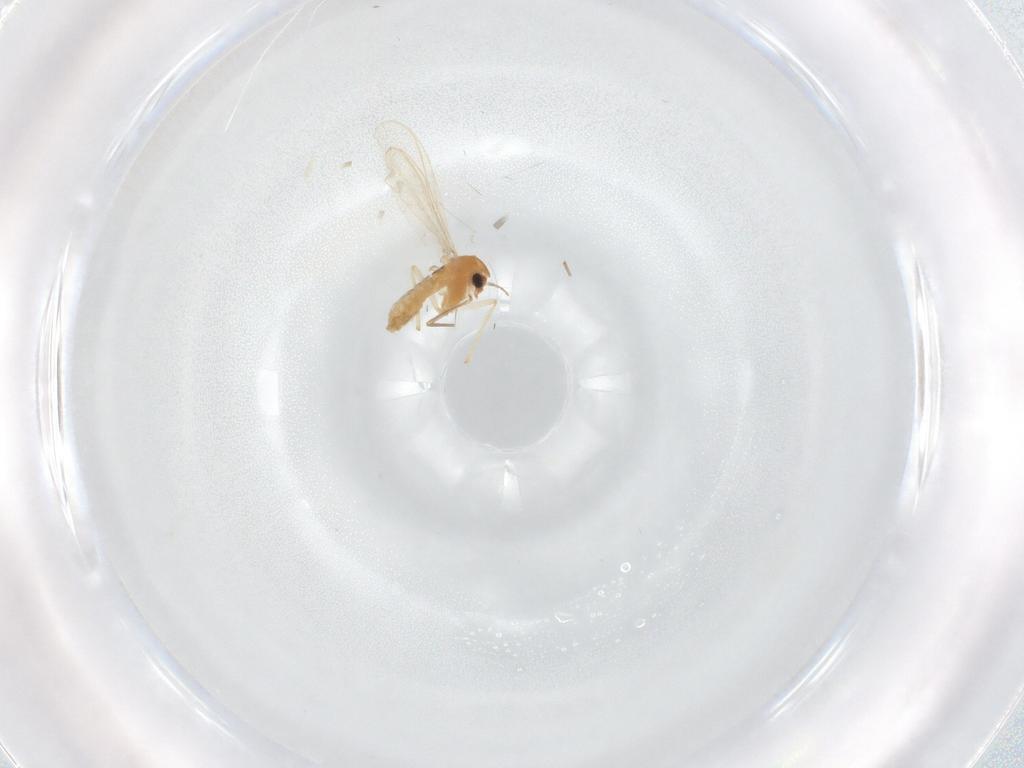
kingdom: Animalia
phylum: Arthropoda
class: Insecta
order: Diptera
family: Chironomidae
